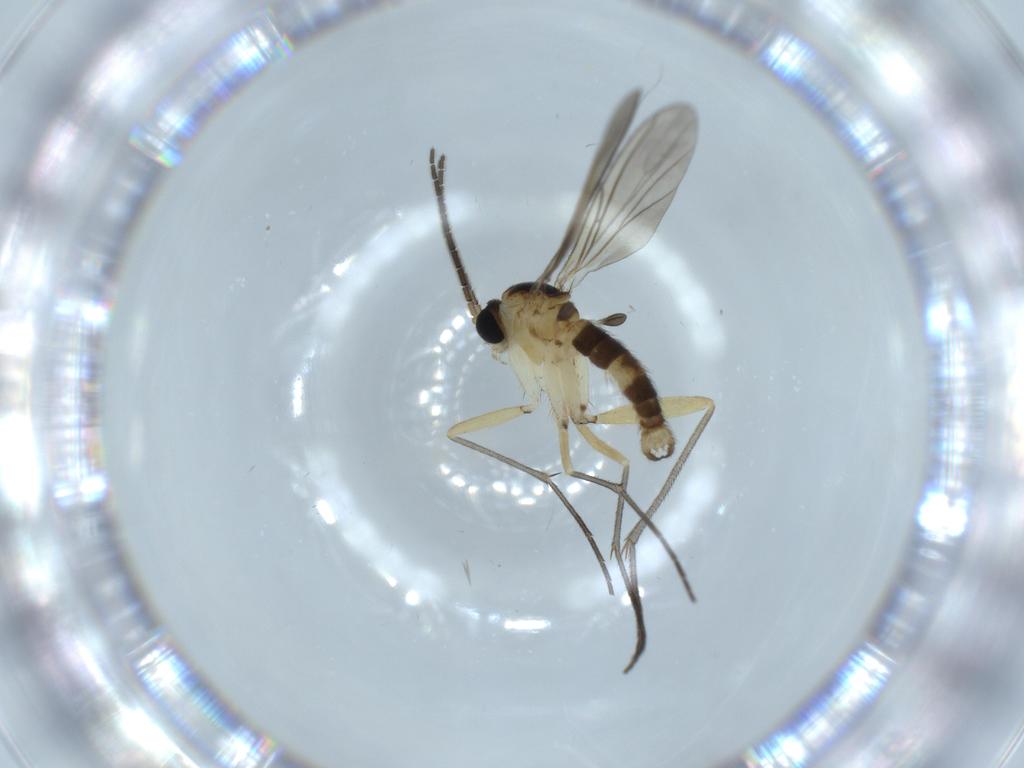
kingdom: Animalia
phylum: Arthropoda
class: Insecta
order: Diptera
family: Sciaridae
